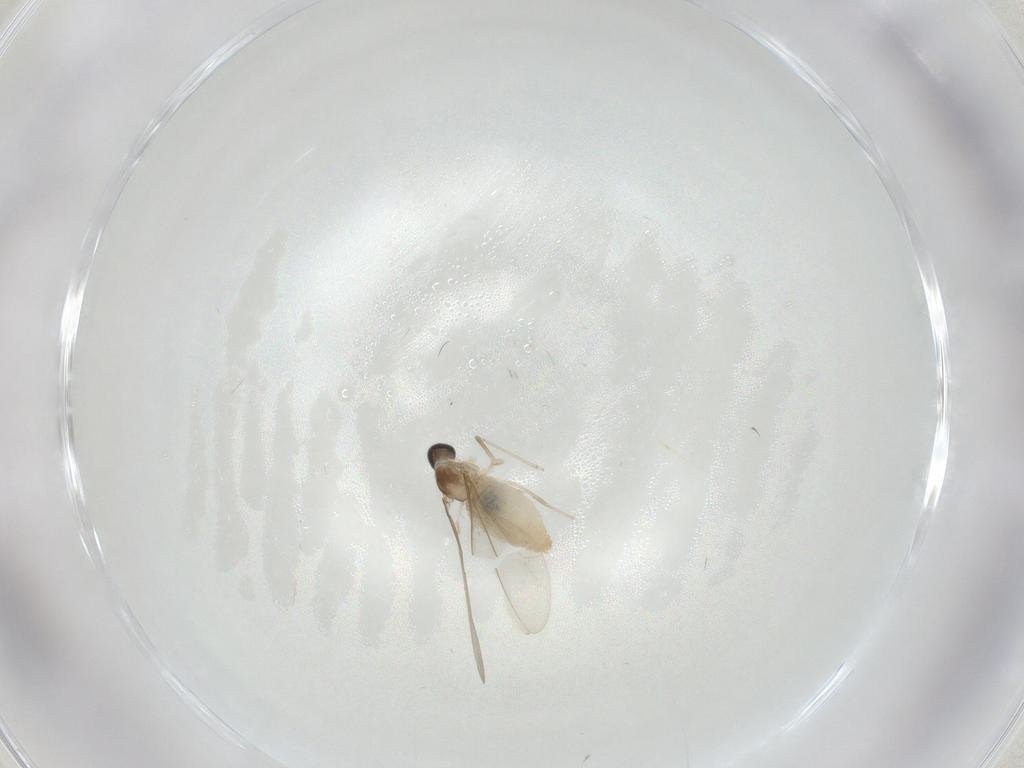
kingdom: Animalia
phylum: Arthropoda
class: Insecta
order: Diptera
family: Cecidomyiidae
